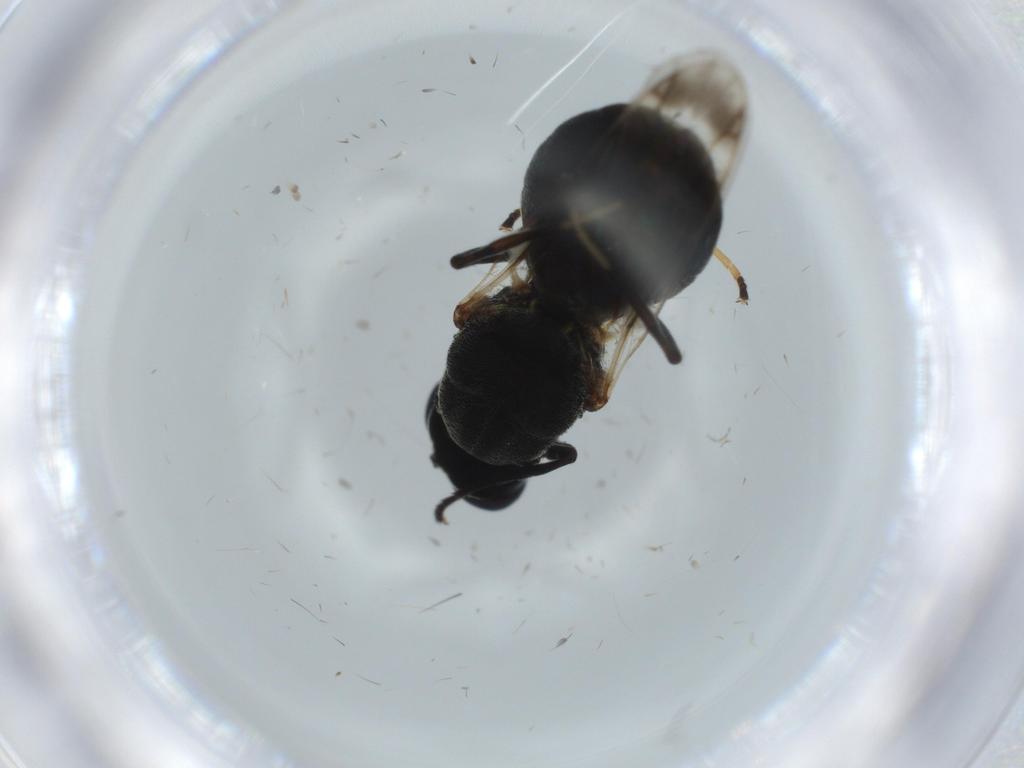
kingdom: Animalia
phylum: Arthropoda
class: Insecta
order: Diptera
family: Stratiomyidae
